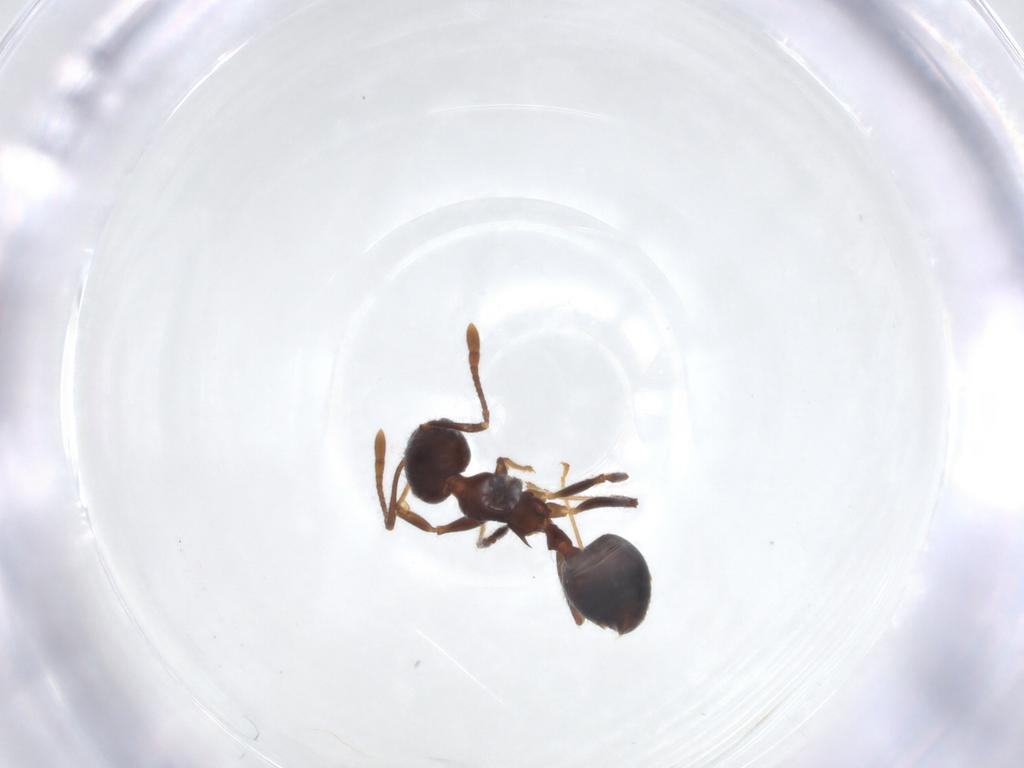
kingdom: Animalia
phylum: Arthropoda
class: Insecta
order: Hymenoptera
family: Formicidae
